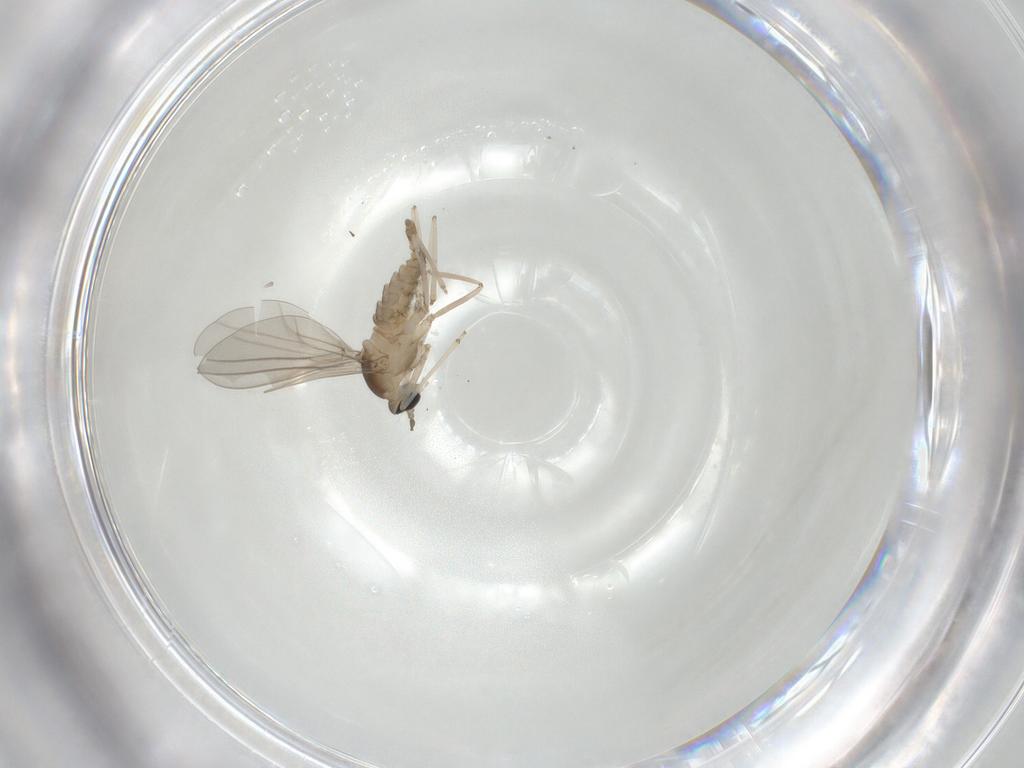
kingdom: Animalia
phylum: Arthropoda
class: Insecta
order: Diptera
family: Cecidomyiidae
